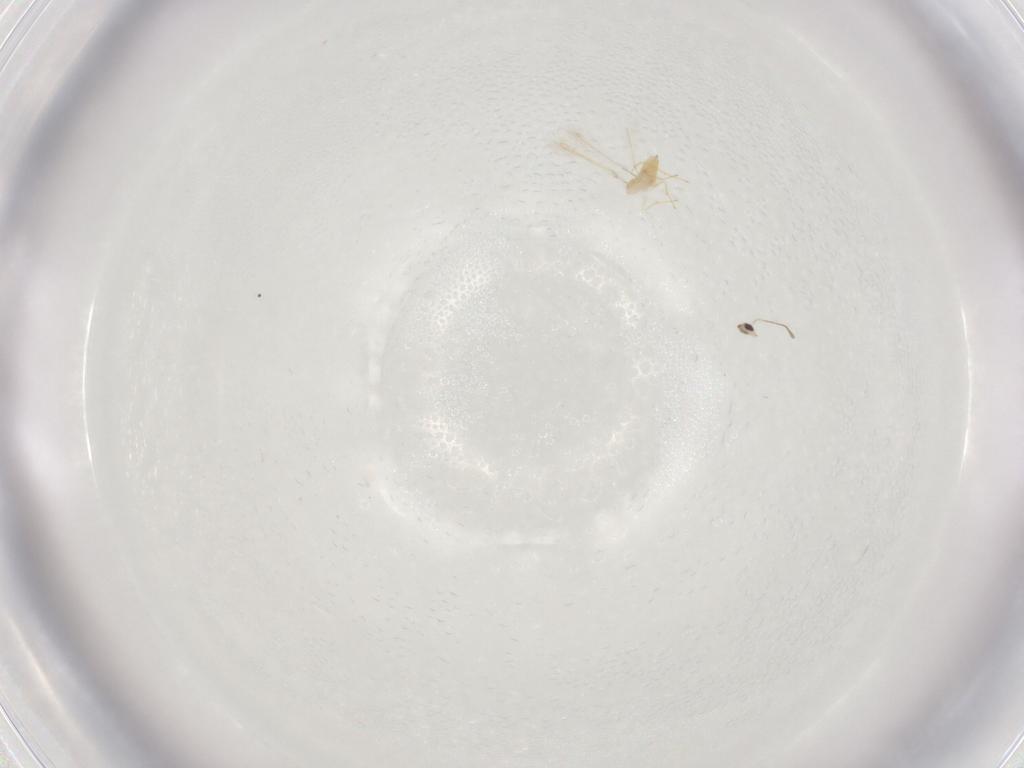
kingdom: Animalia
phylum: Arthropoda
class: Insecta
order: Hymenoptera
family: Mymaridae
